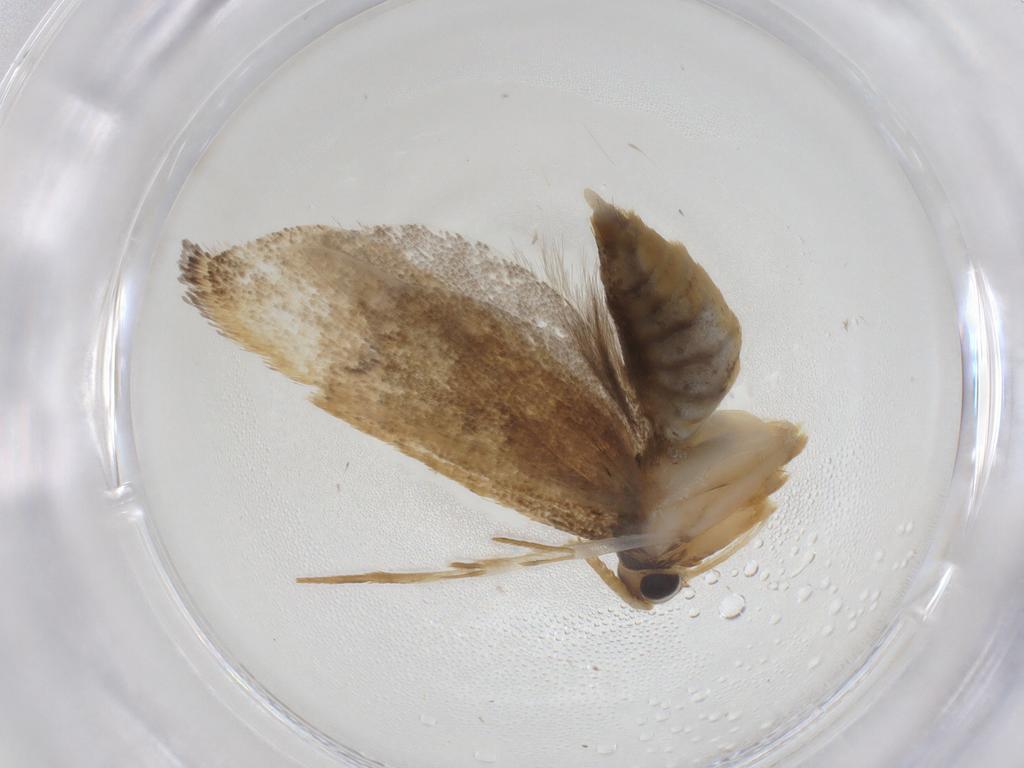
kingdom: Animalia
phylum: Arthropoda
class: Insecta
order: Lepidoptera
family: Lecithoceridae
